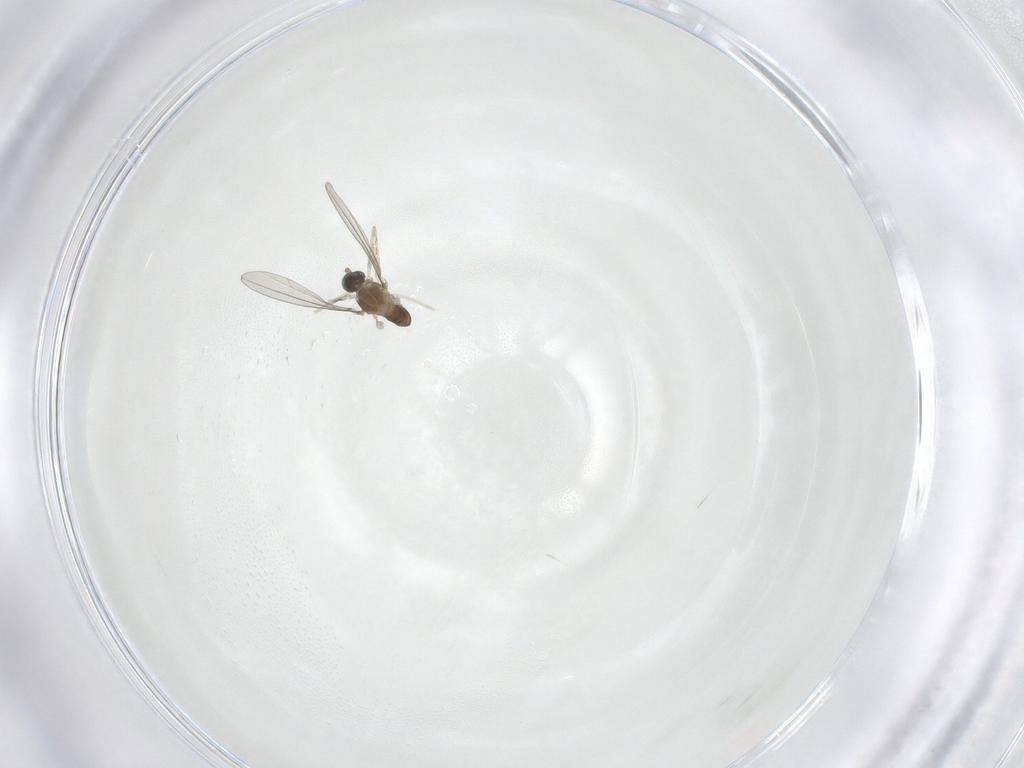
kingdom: Animalia
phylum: Arthropoda
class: Insecta
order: Diptera
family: Cecidomyiidae
